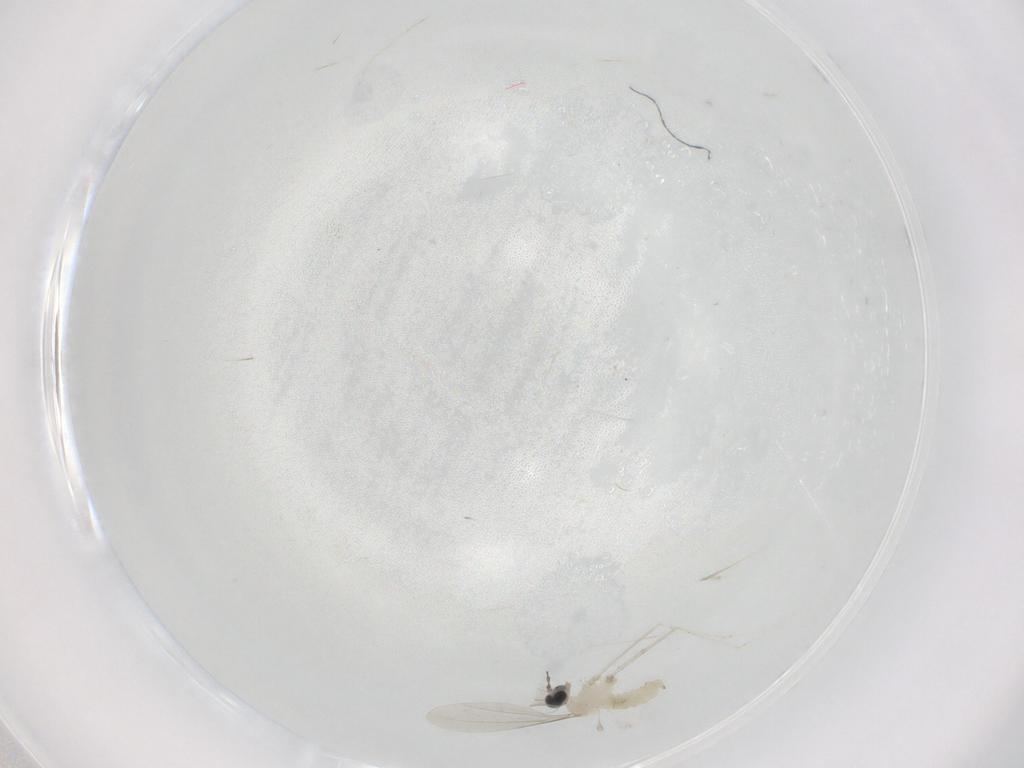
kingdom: Animalia
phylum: Arthropoda
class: Insecta
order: Diptera
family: Cecidomyiidae
